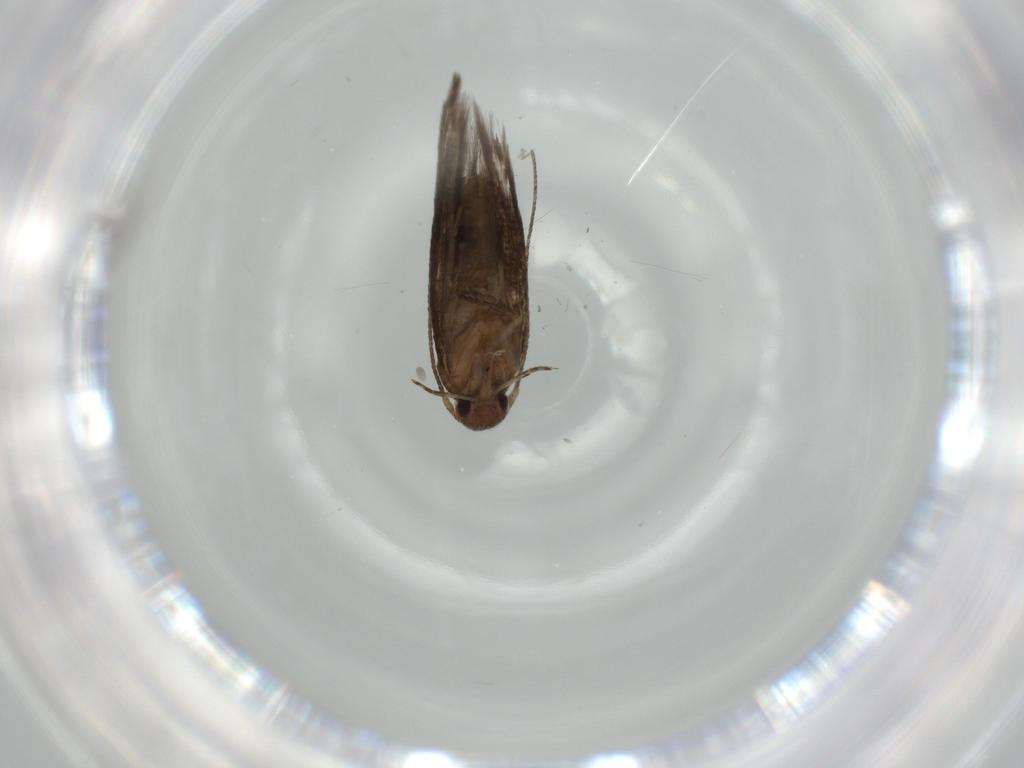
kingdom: Animalia
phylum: Arthropoda
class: Insecta
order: Lepidoptera
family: Gelechiidae
